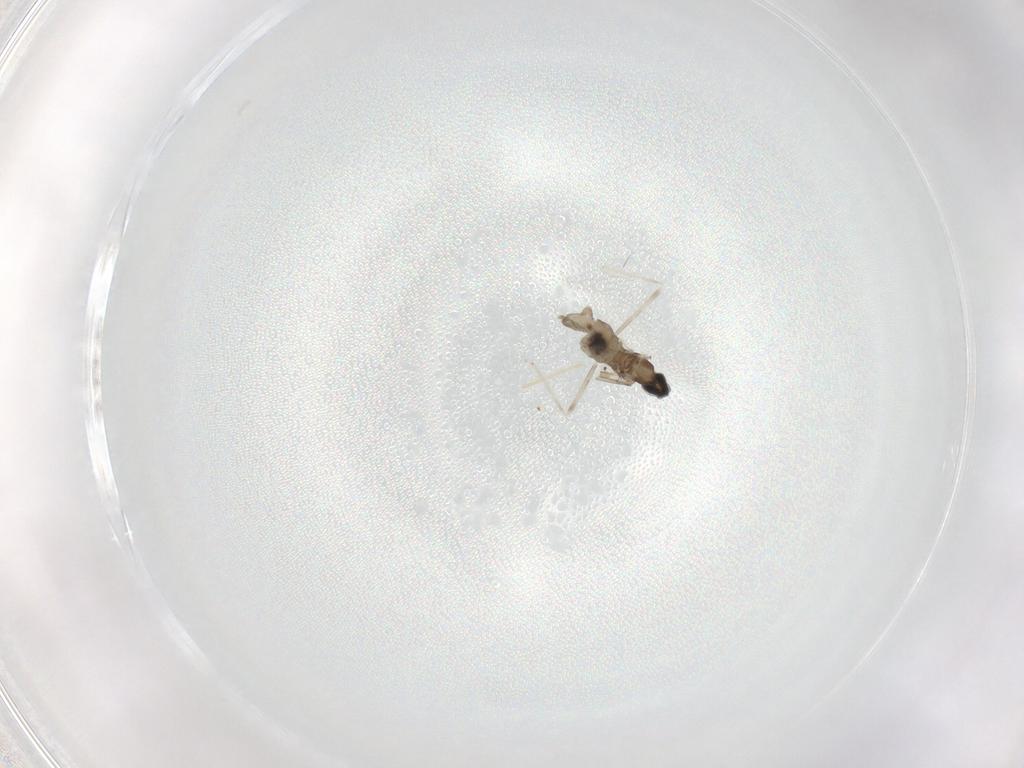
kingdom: Animalia
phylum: Arthropoda
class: Insecta
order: Diptera
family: Cecidomyiidae
